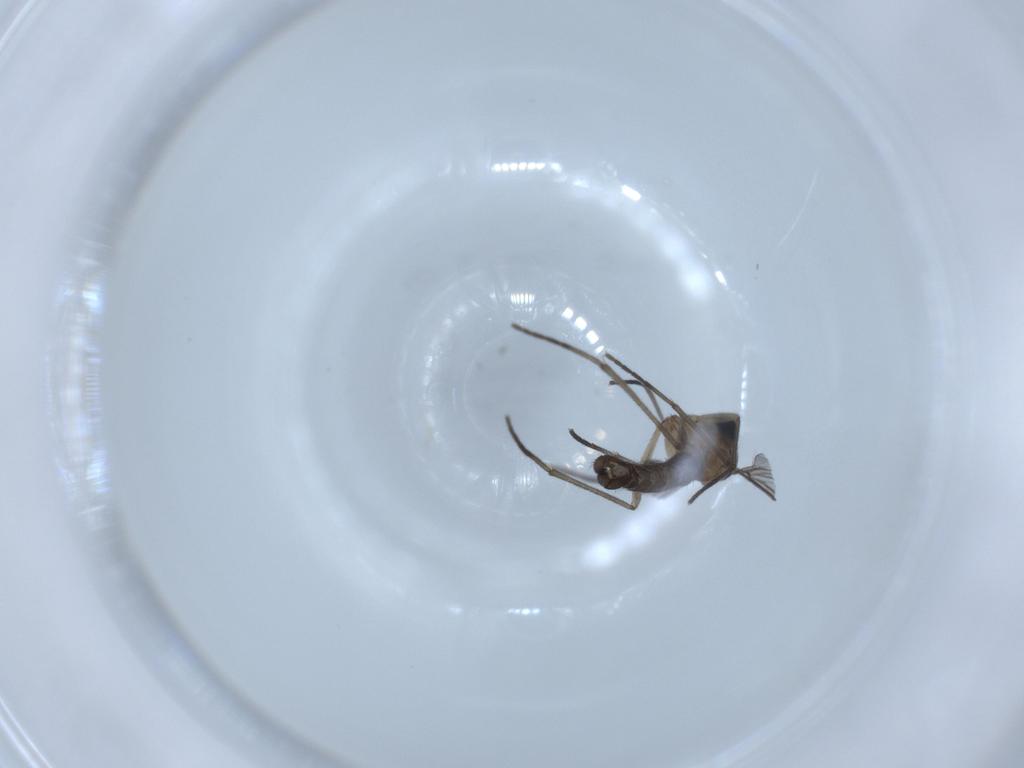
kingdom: Animalia
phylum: Arthropoda
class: Insecta
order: Diptera
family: Sciaridae
